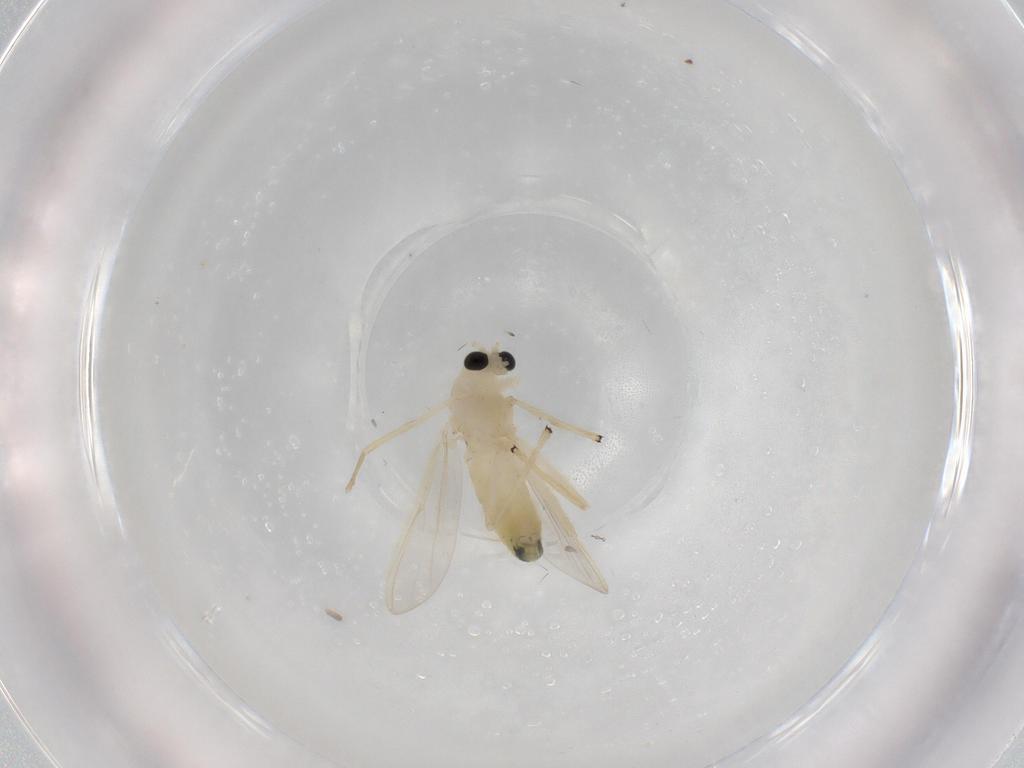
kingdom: Animalia
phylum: Arthropoda
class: Insecta
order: Diptera
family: Chironomidae
